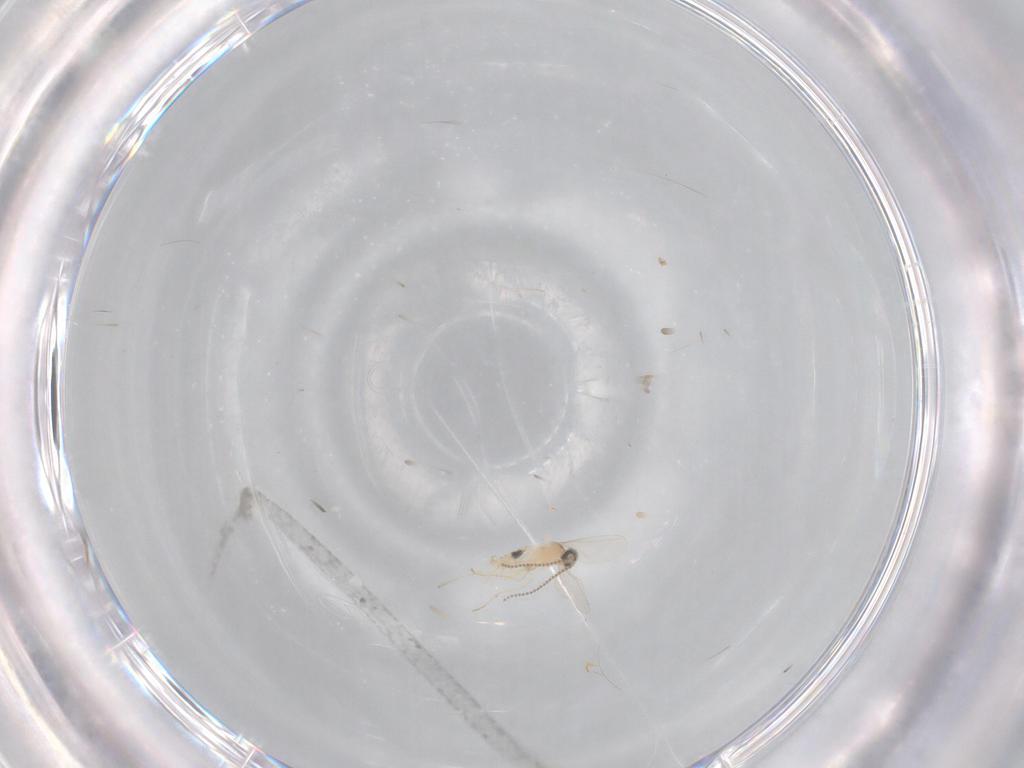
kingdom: Animalia
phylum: Arthropoda
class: Insecta
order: Diptera
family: Cecidomyiidae
